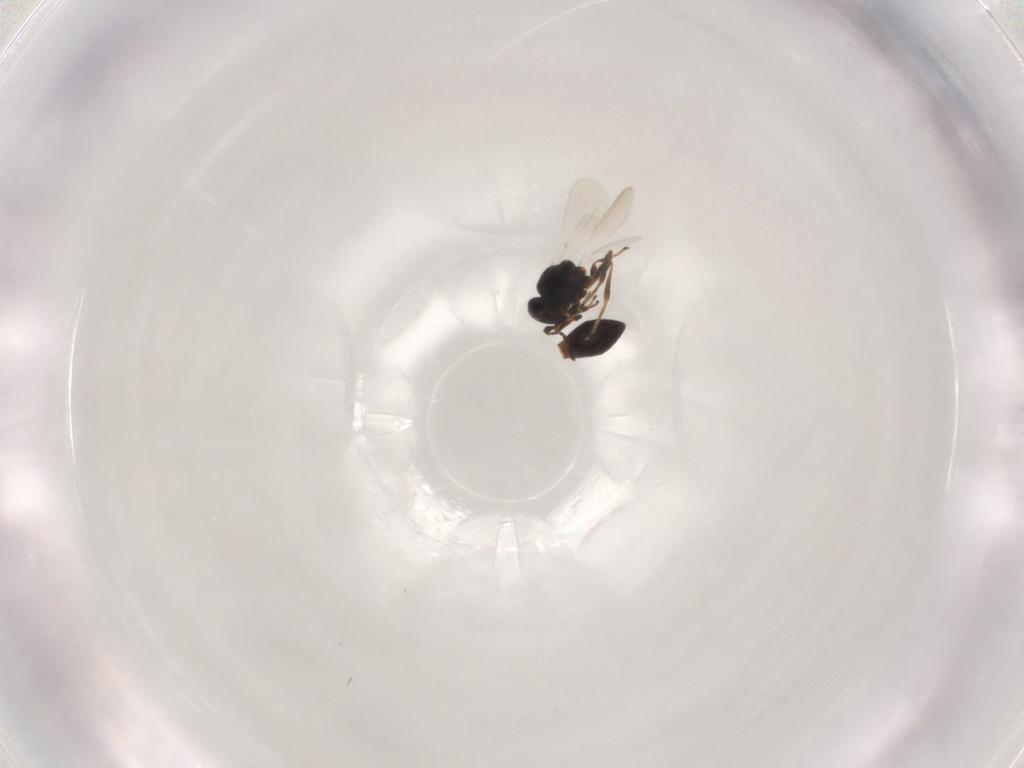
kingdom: Animalia
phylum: Arthropoda
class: Insecta
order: Hymenoptera
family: Platygastridae
